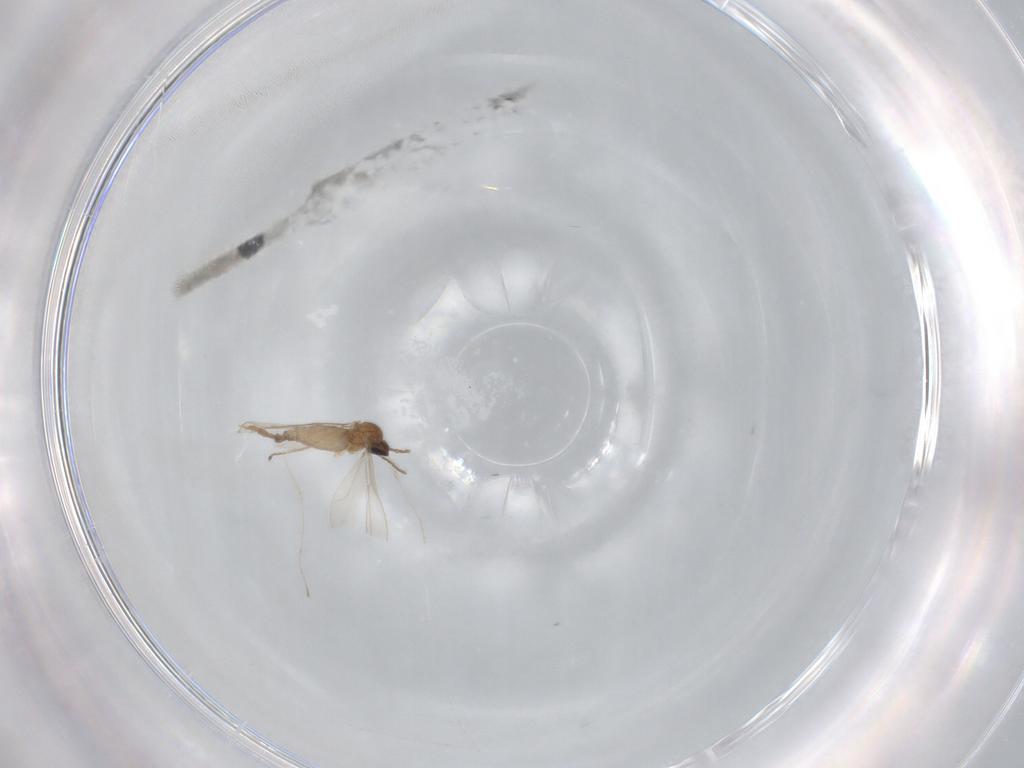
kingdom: Animalia
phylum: Arthropoda
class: Insecta
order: Diptera
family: Cecidomyiidae
